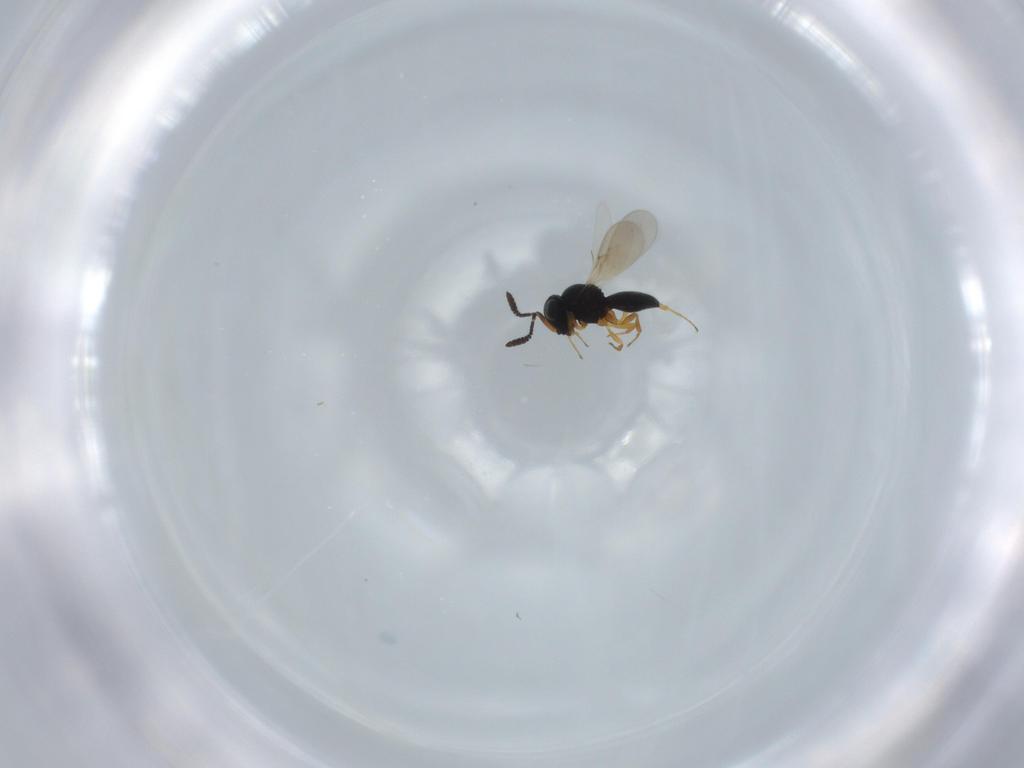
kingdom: Animalia
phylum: Arthropoda
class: Insecta
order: Hymenoptera
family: Scelionidae
